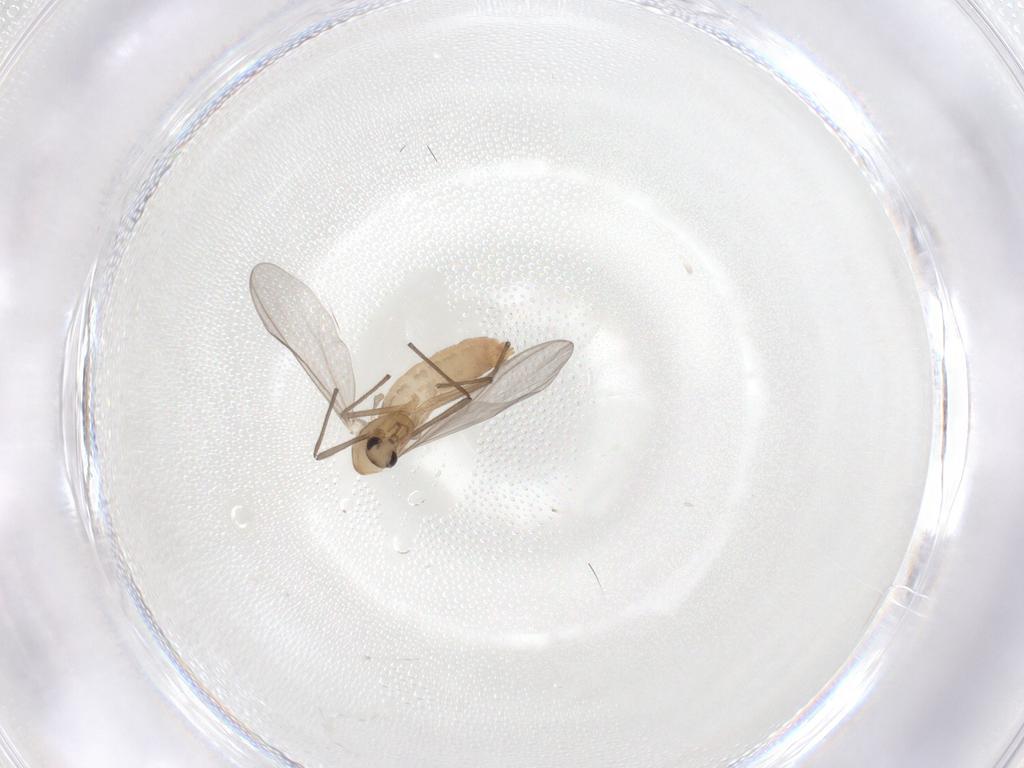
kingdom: Animalia
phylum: Arthropoda
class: Insecta
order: Diptera
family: Chironomidae
